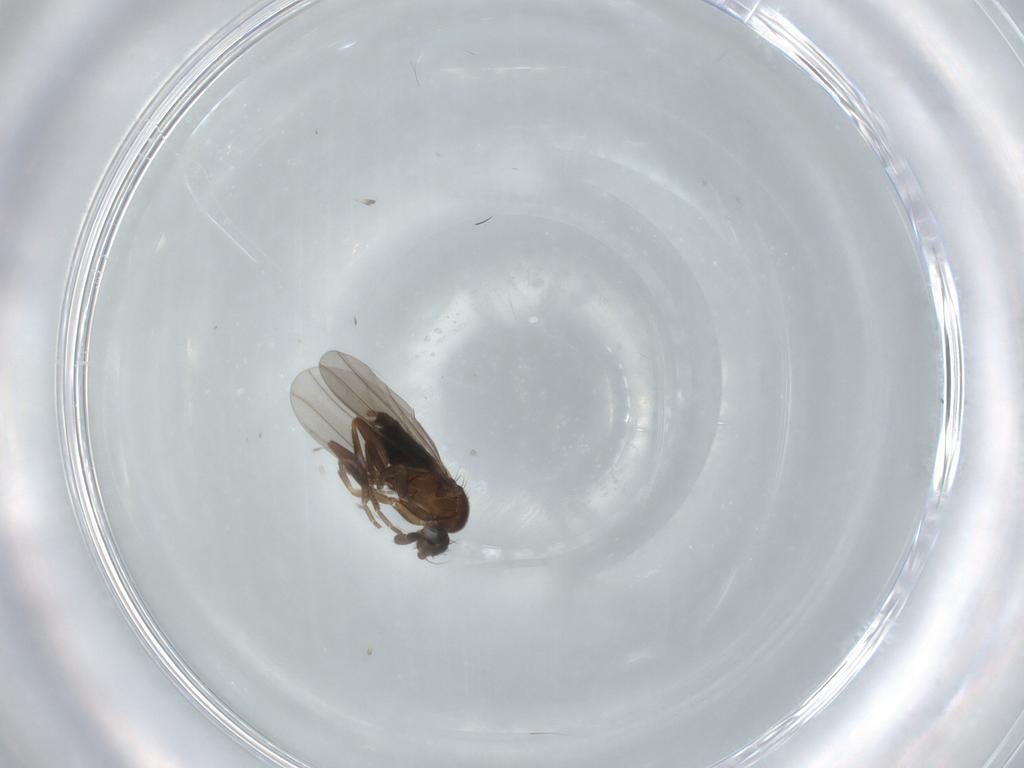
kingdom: Animalia
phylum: Arthropoda
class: Insecta
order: Diptera
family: Phoridae
